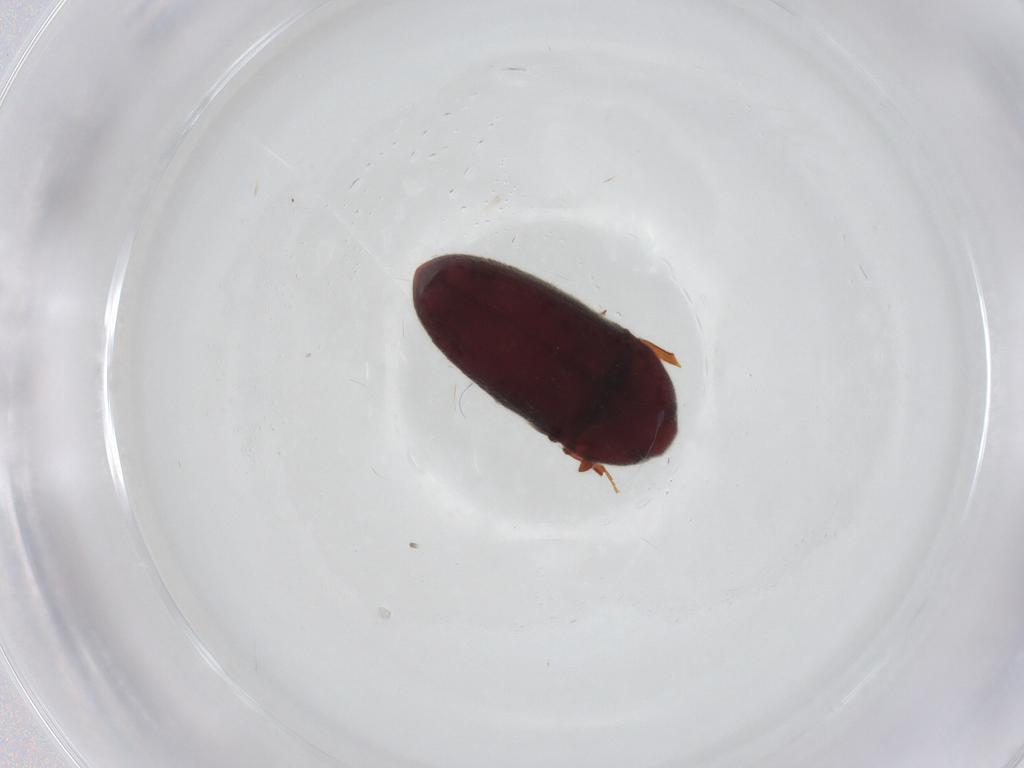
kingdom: Animalia
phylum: Arthropoda
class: Insecta
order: Coleoptera
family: Throscidae
